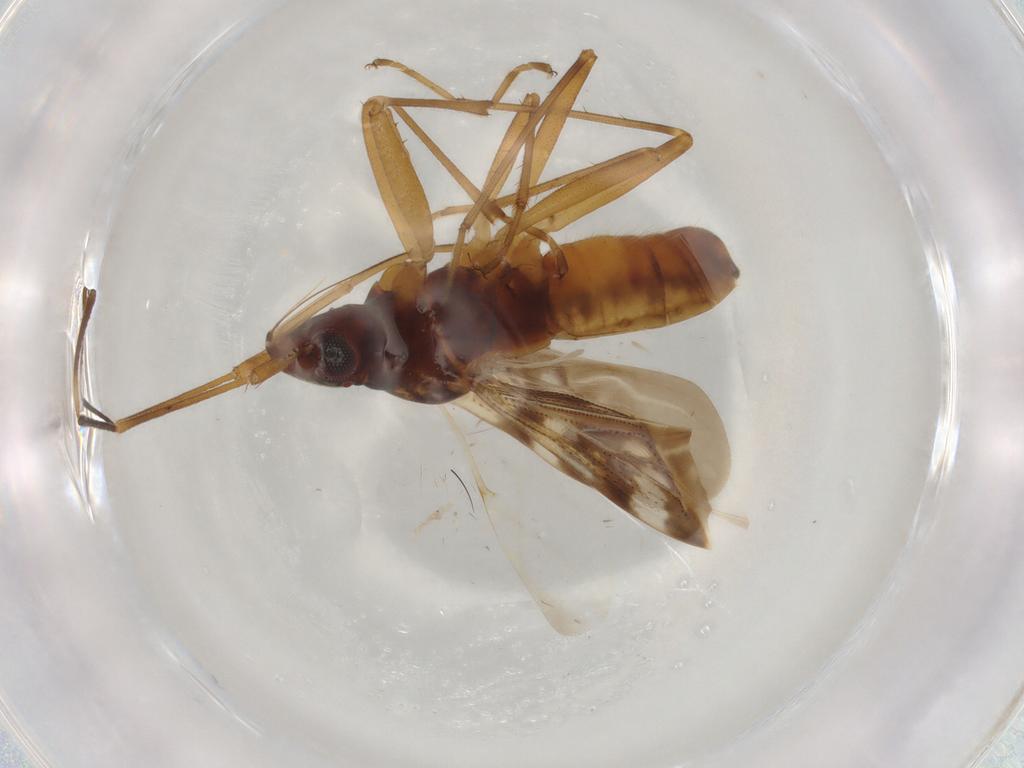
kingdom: Animalia
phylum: Arthropoda
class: Insecta
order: Hemiptera
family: Rhyparochromidae
